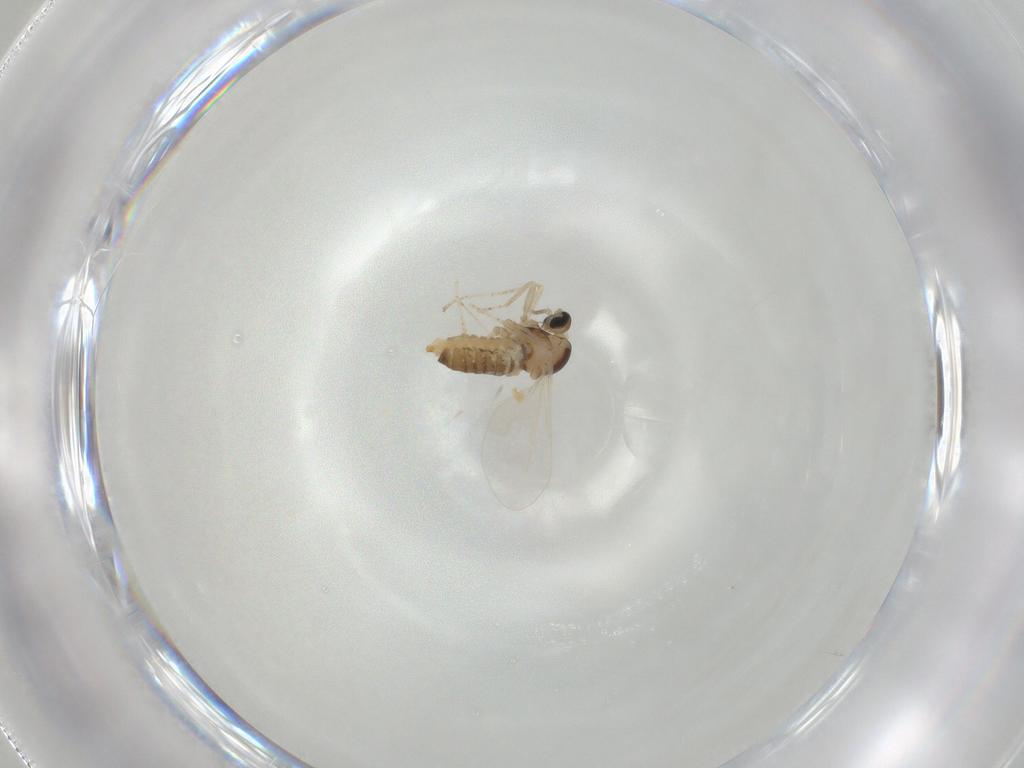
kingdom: Animalia
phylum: Arthropoda
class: Insecta
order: Diptera
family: Cecidomyiidae
